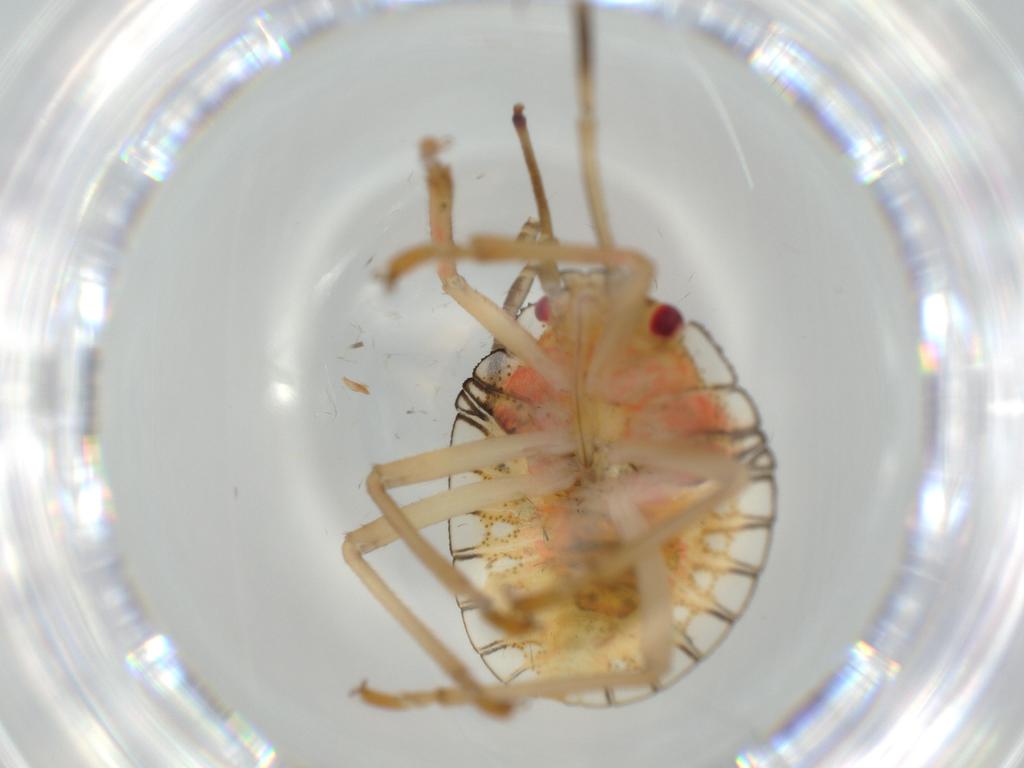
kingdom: Animalia
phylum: Arthropoda
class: Insecta
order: Hemiptera
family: Pentatomidae
